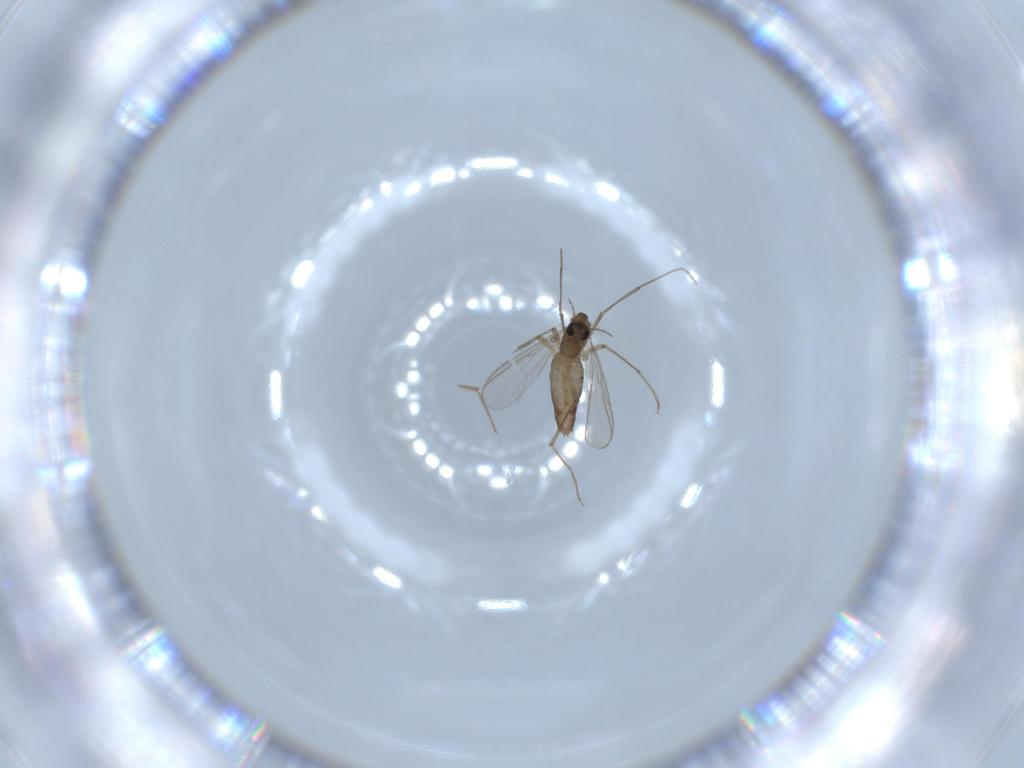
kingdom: Animalia
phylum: Arthropoda
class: Insecta
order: Diptera
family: Chironomidae
